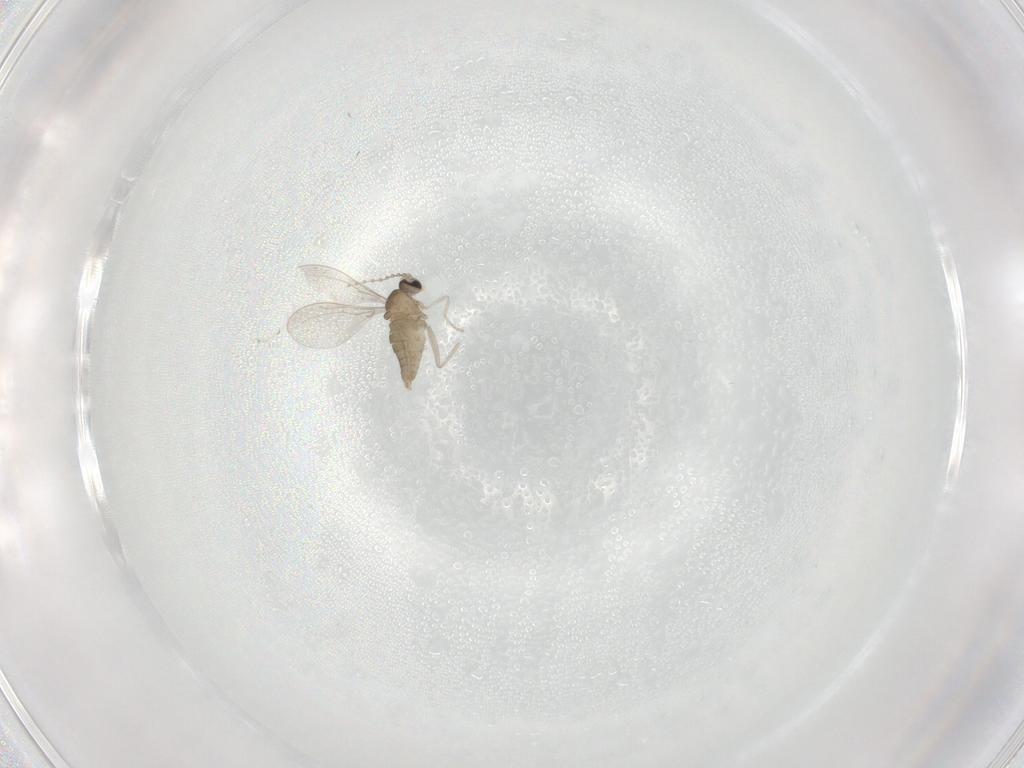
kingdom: Animalia
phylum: Arthropoda
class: Insecta
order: Diptera
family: Cecidomyiidae
